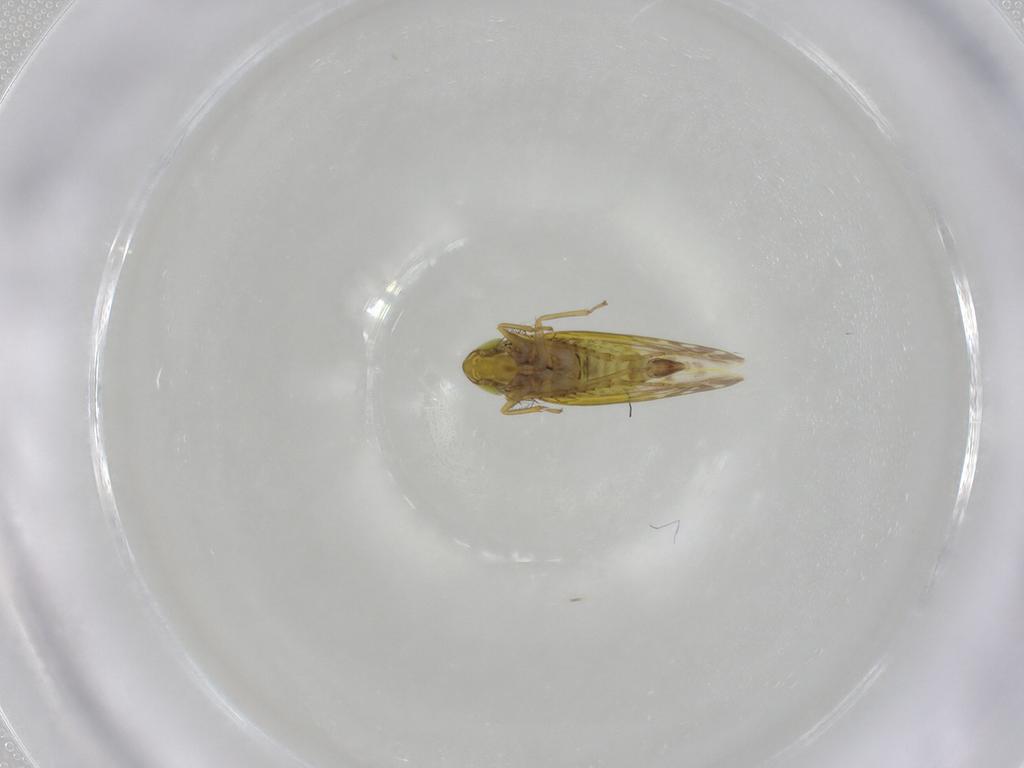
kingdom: Animalia
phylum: Arthropoda
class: Insecta
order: Hemiptera
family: Cicadellidae
